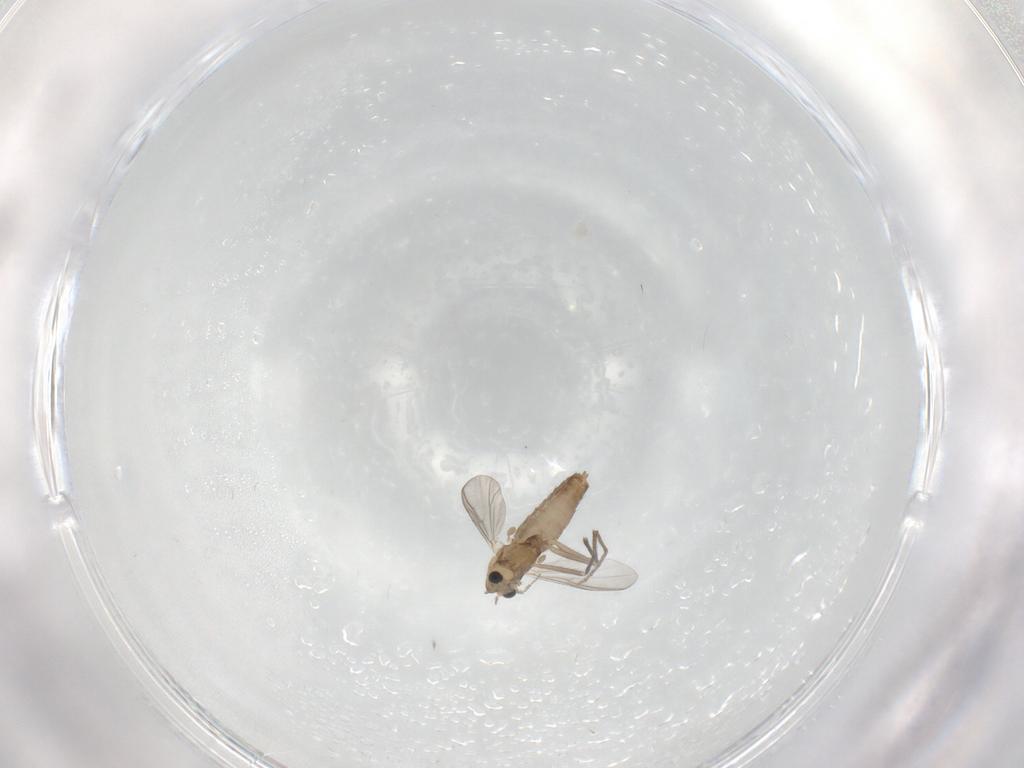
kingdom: Animalia
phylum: Arthropoda
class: Insecta
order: Diptera
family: Chironomidae
